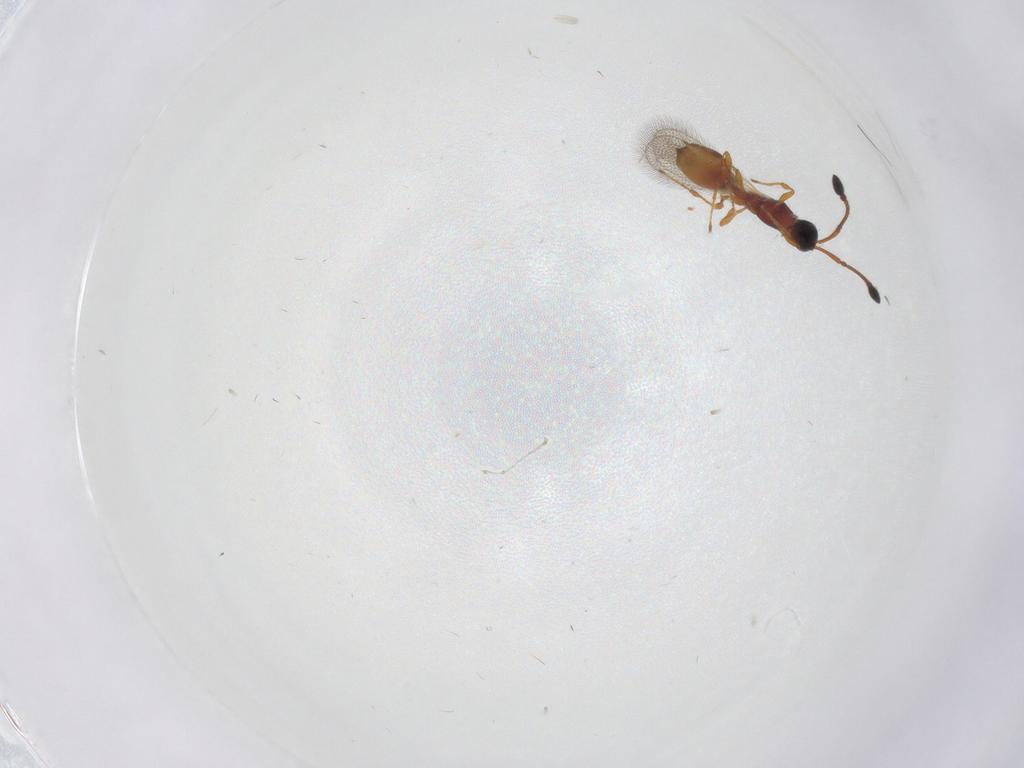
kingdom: Animalia
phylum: Arthropoda
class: Insecta
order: Hymenoptera
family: Diapriidae
